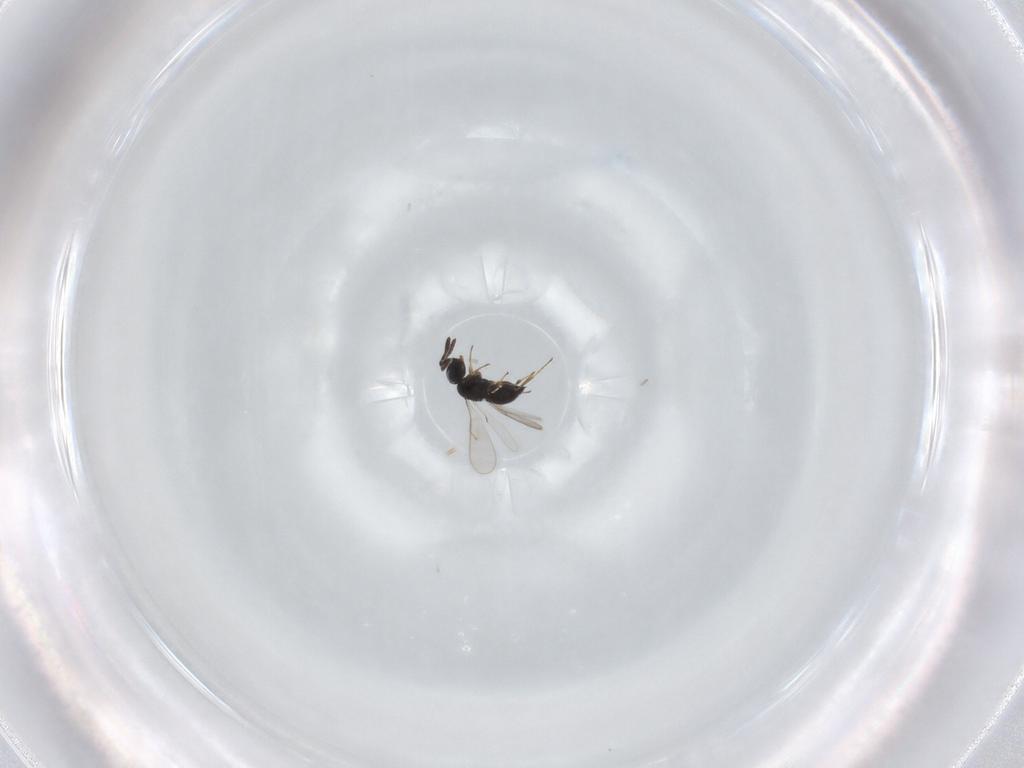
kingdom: Animalia
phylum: Arthropoda
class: Insecta
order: Hymenoptera
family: Scelionidae
